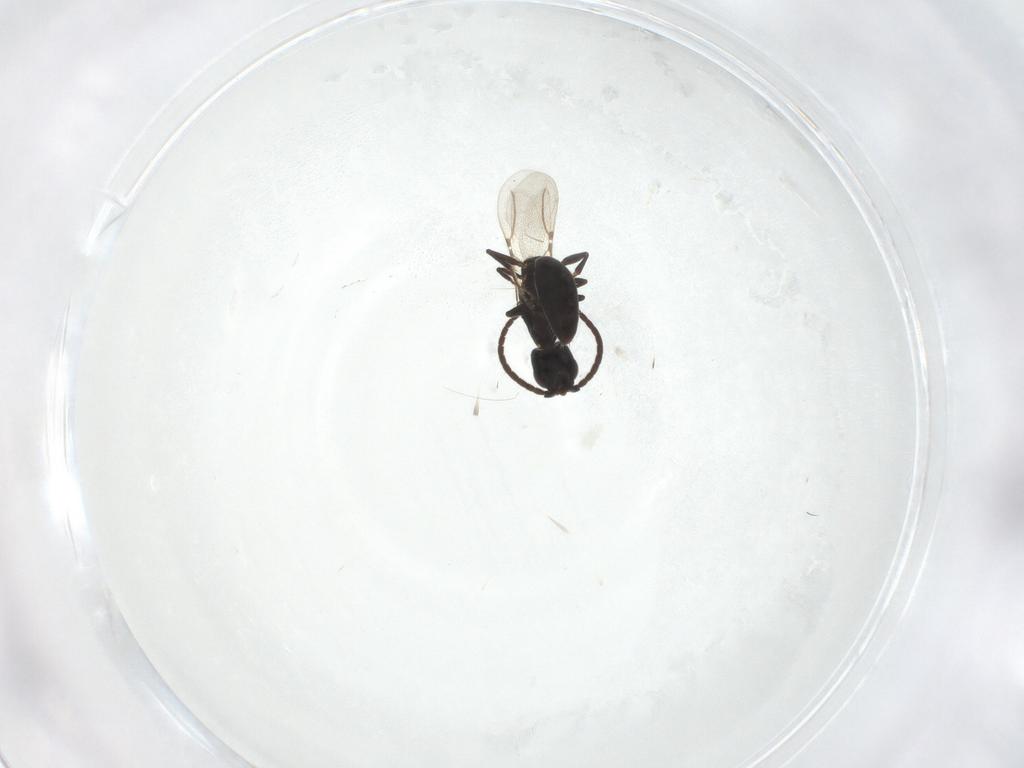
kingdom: Animalia
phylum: Arthropoda
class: Insecta
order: Hymenoptera
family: Bethylidae
